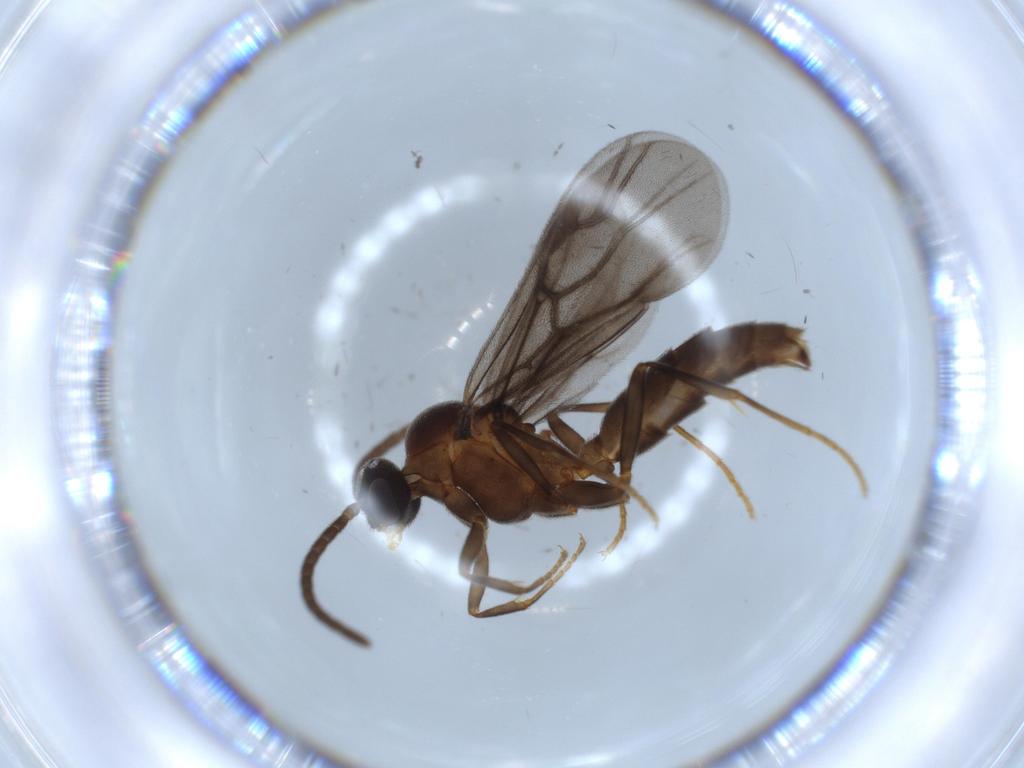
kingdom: Animalia
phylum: Arthropoda
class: Insecta
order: Hymenoptera
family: Formicidae
